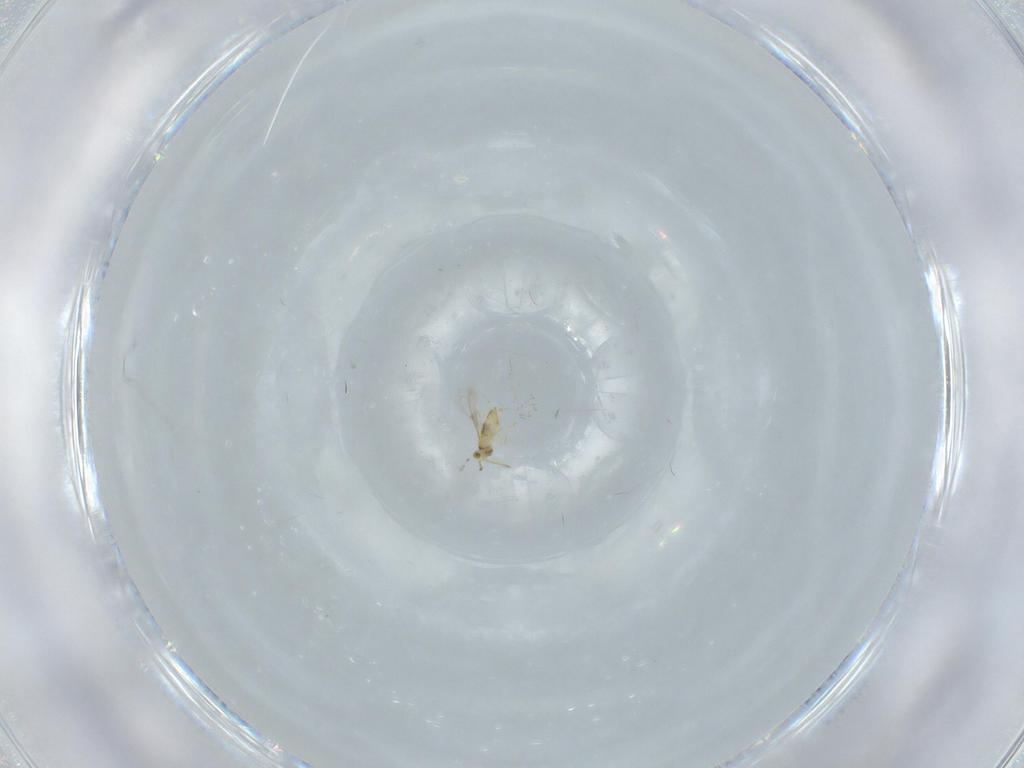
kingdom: Animalia
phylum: Arthropoda
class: Insecta
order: Hymenoptera
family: Aphelinidae
